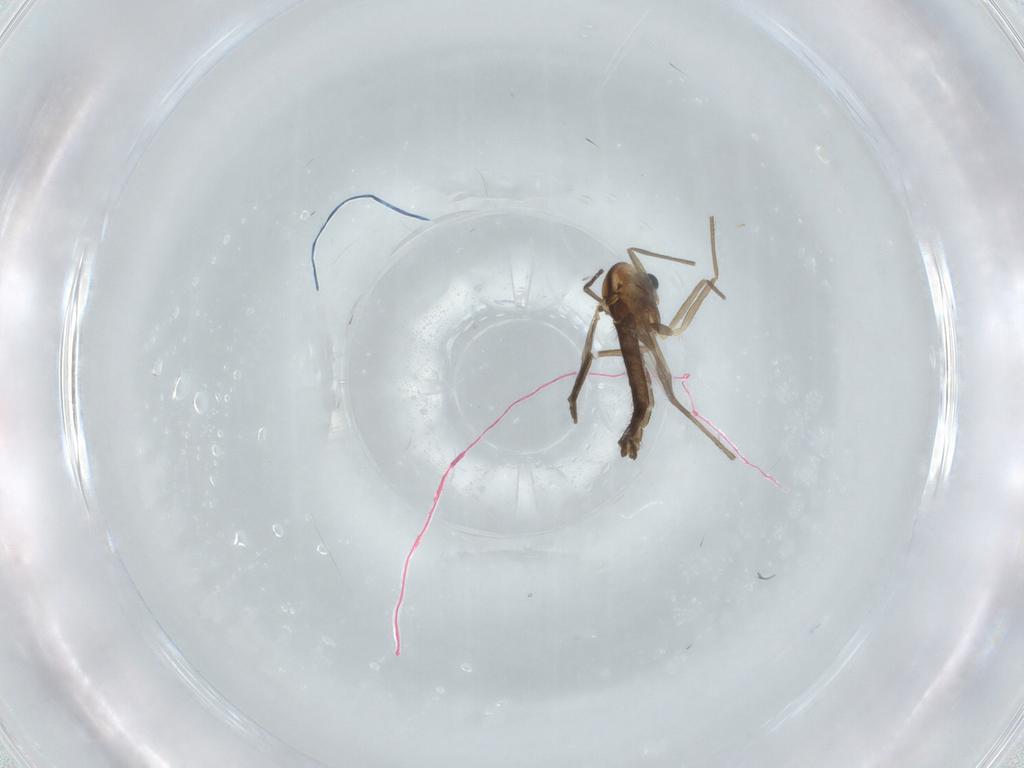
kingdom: Animalia
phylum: Arthropoda
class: Insecta
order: Diptera
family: Chironomidae
